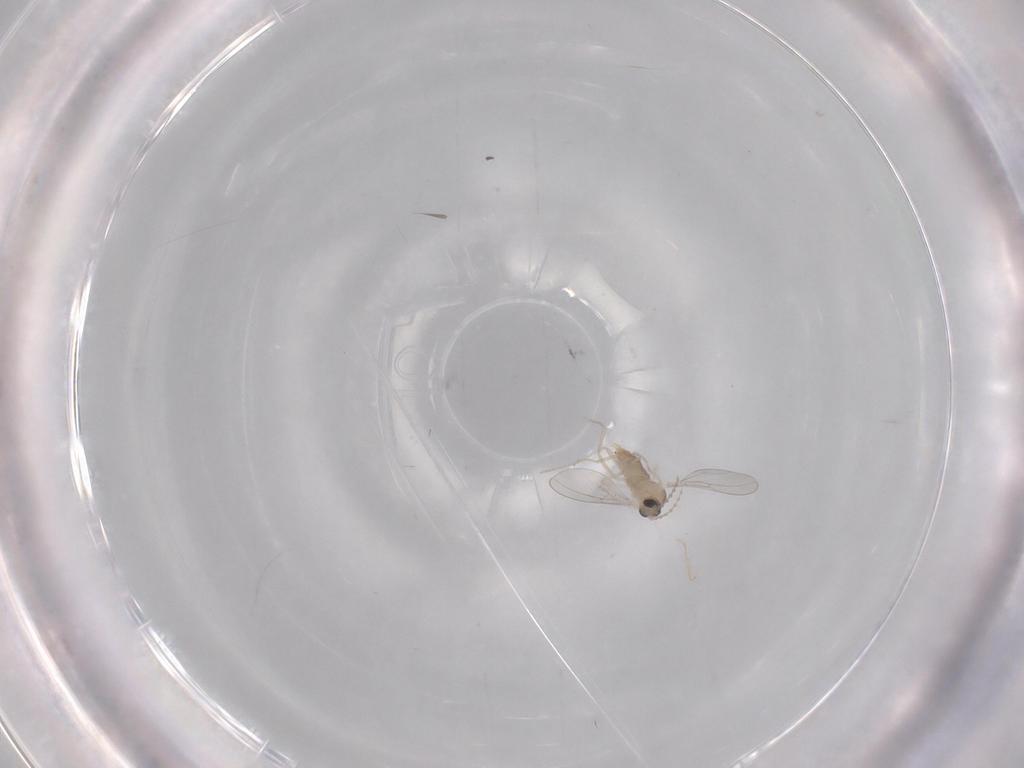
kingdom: Animalia
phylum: Arthropoda
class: Insecta
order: Diptera
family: Cecidomyiidae
